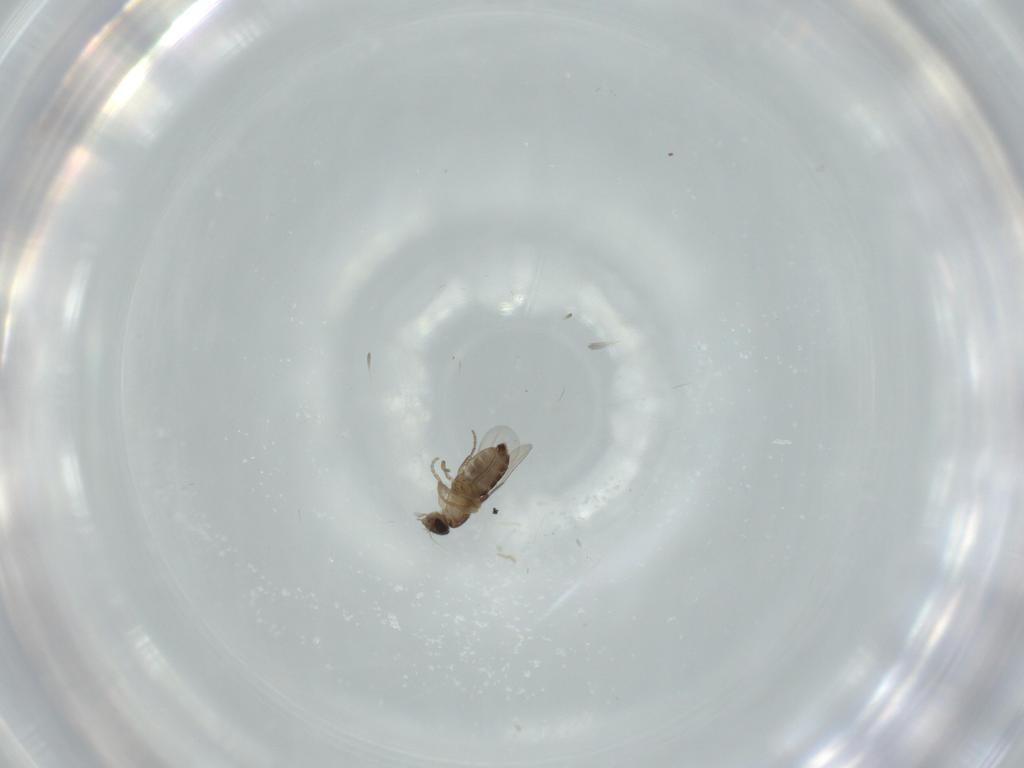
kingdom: Animalia
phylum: Arthropoda
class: Insecta
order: Diptera
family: Phoridae
